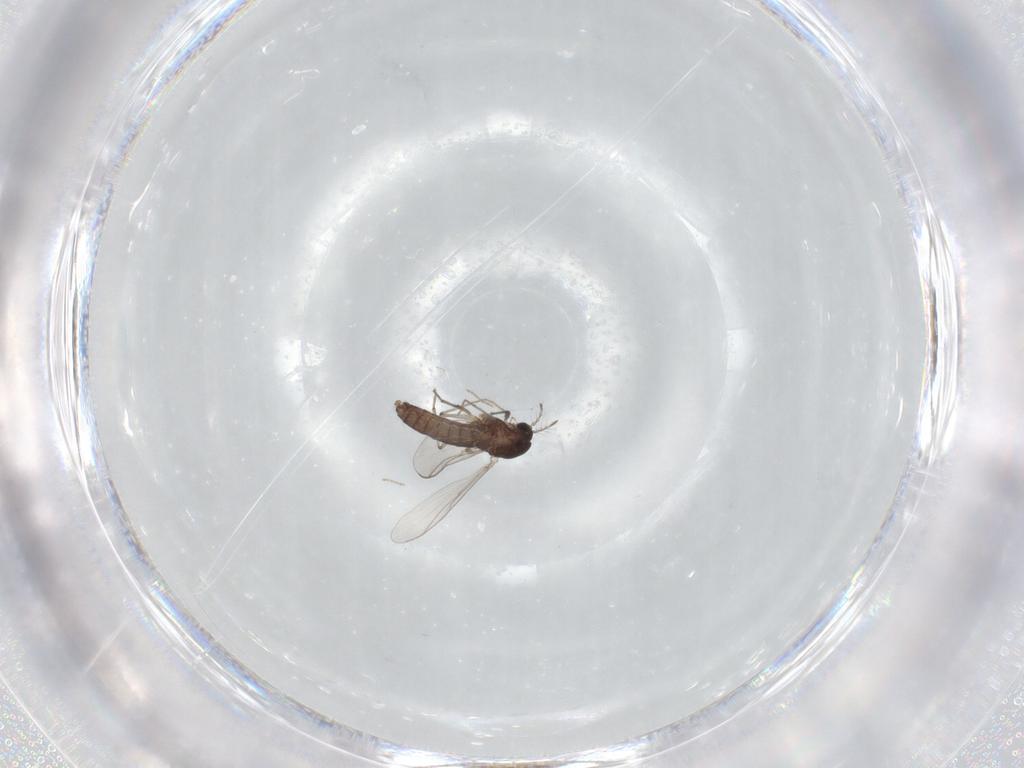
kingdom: Animalia
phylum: Arthropoda
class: Insecta
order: Diptera
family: Chironomidae
